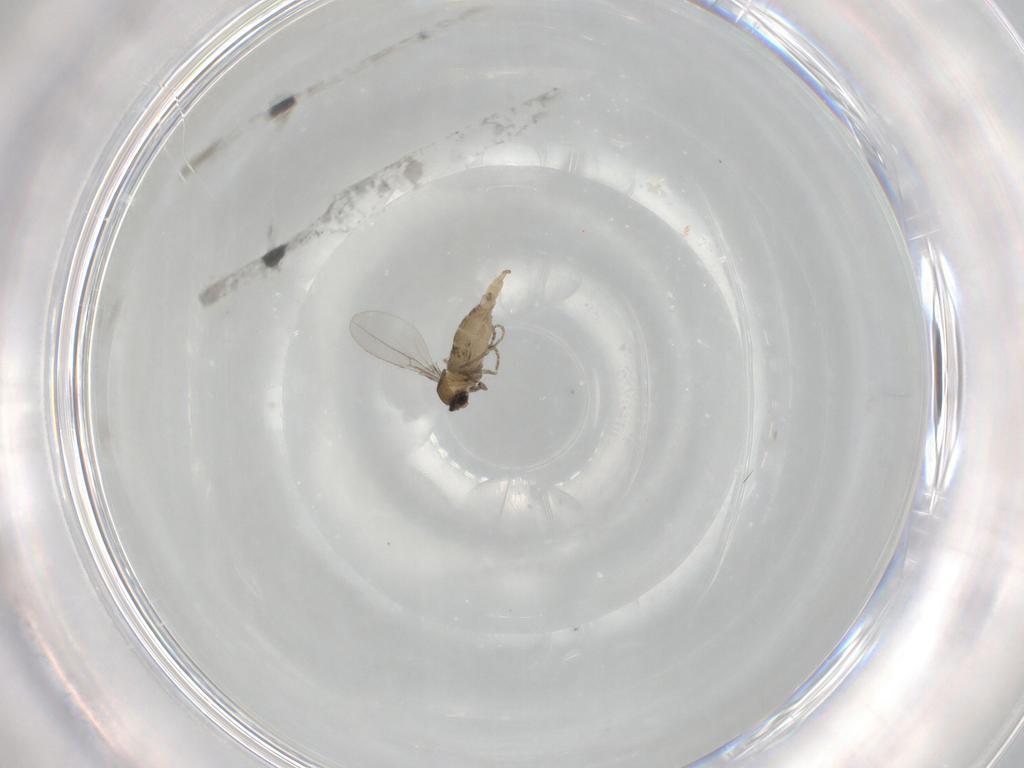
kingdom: Animalia
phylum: Arthropoda
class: Insecta
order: Diptera
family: Cecidomyiidae
